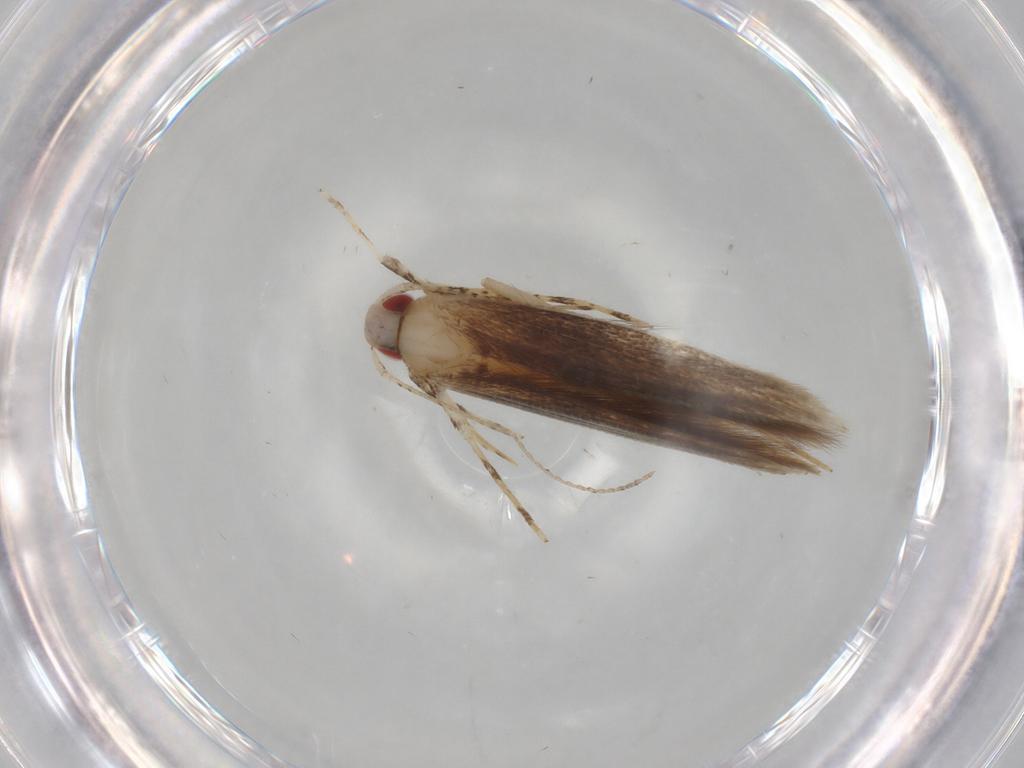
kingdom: Animalia
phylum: Arthropoda
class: Insecta
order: Lepidoptera
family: Cosmopterigidae
